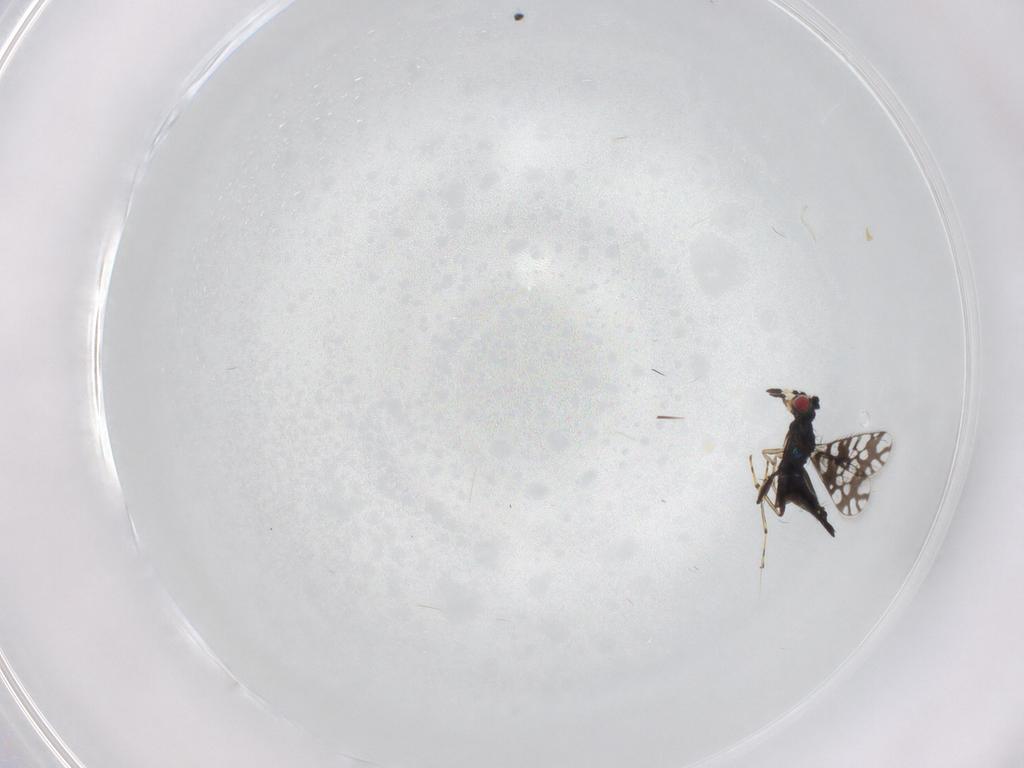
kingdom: Animalia
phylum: Arthropoda
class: Insecta
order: Hymenoptera
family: Eulophidae
